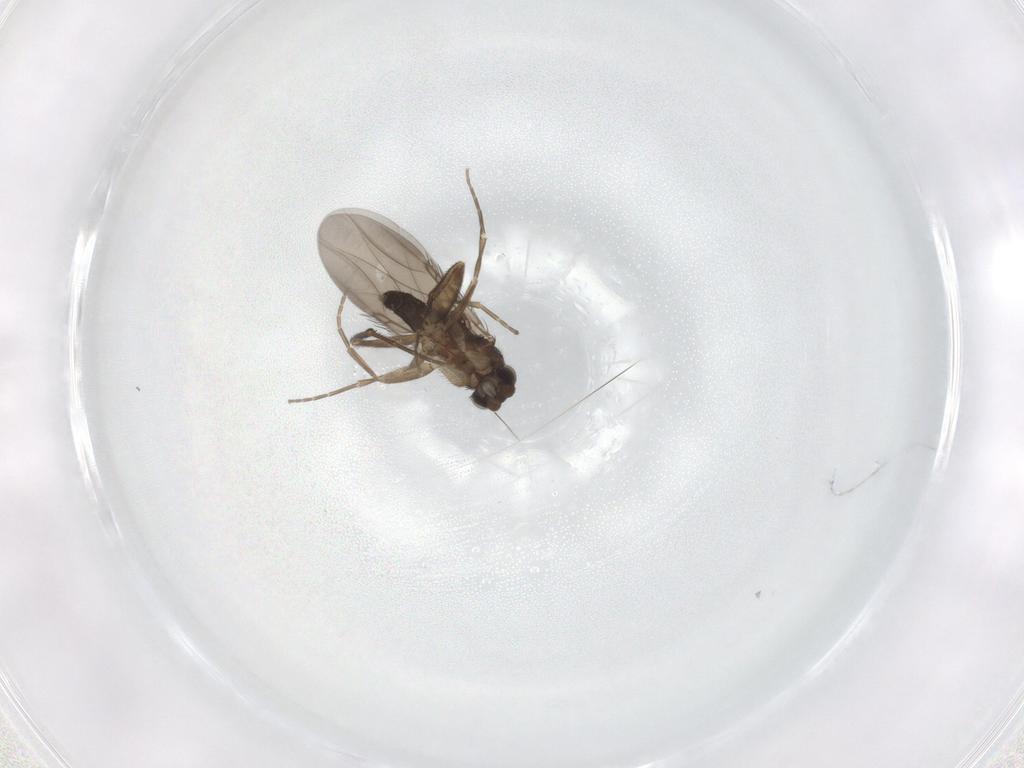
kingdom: Animalia
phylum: Arthropoda
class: Insecta
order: Diptera
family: Phoridae
